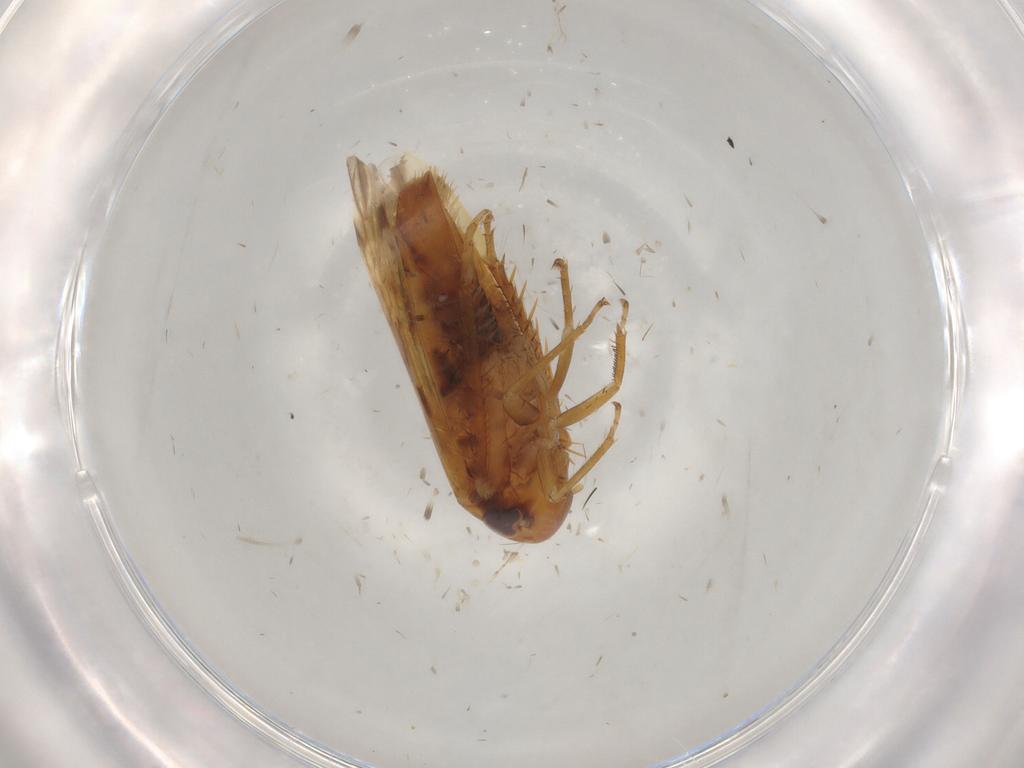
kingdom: Animalia
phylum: Arthropoda
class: Insecta
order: Hemiptera
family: Cicadellidae
